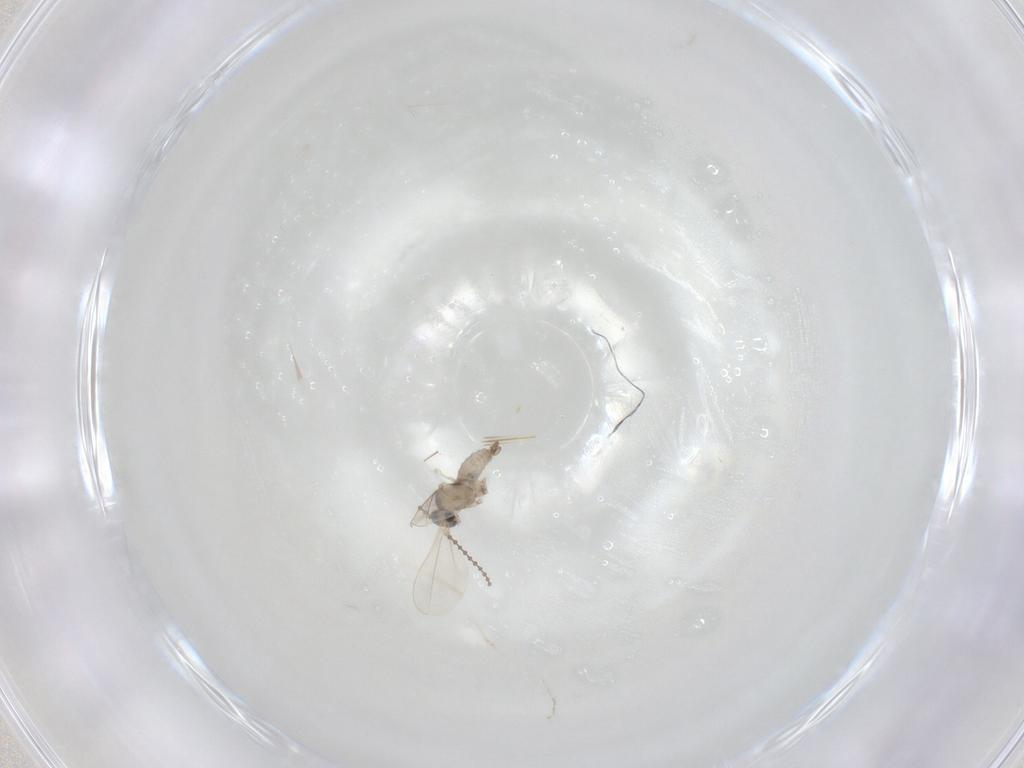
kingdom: Animalia
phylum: Arthropoda
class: Insecta
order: Diptera
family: Cecidomyiidae
